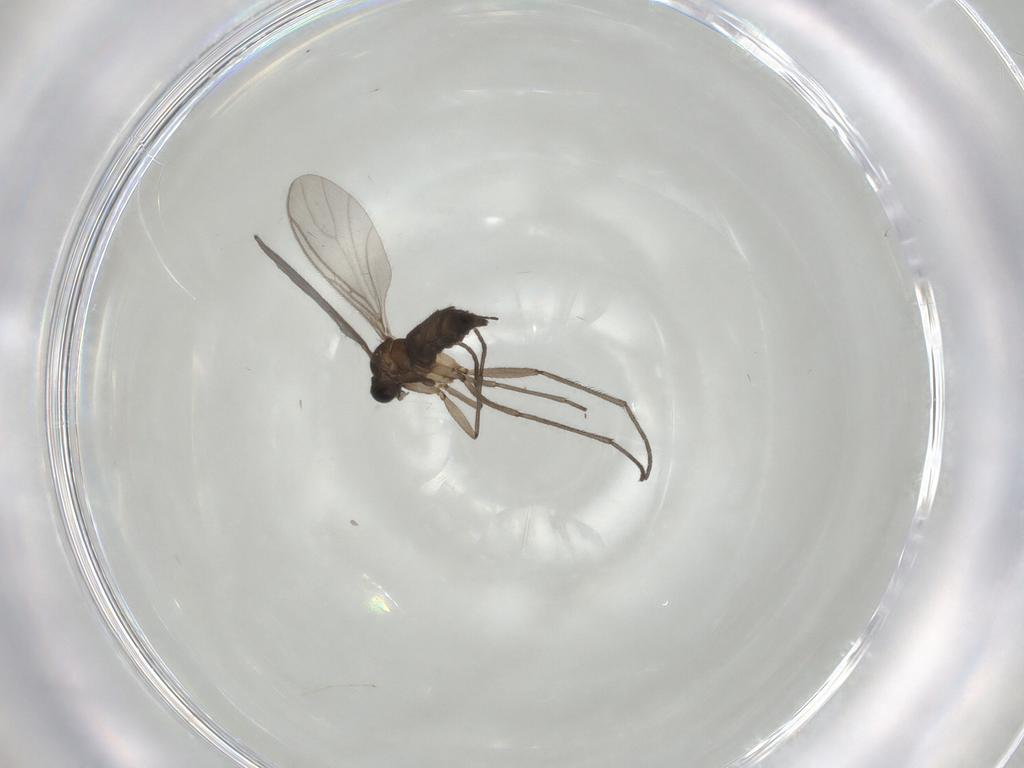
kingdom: Animalia
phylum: Arthropoda
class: Insecta
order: Diptera
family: Sciaridae
